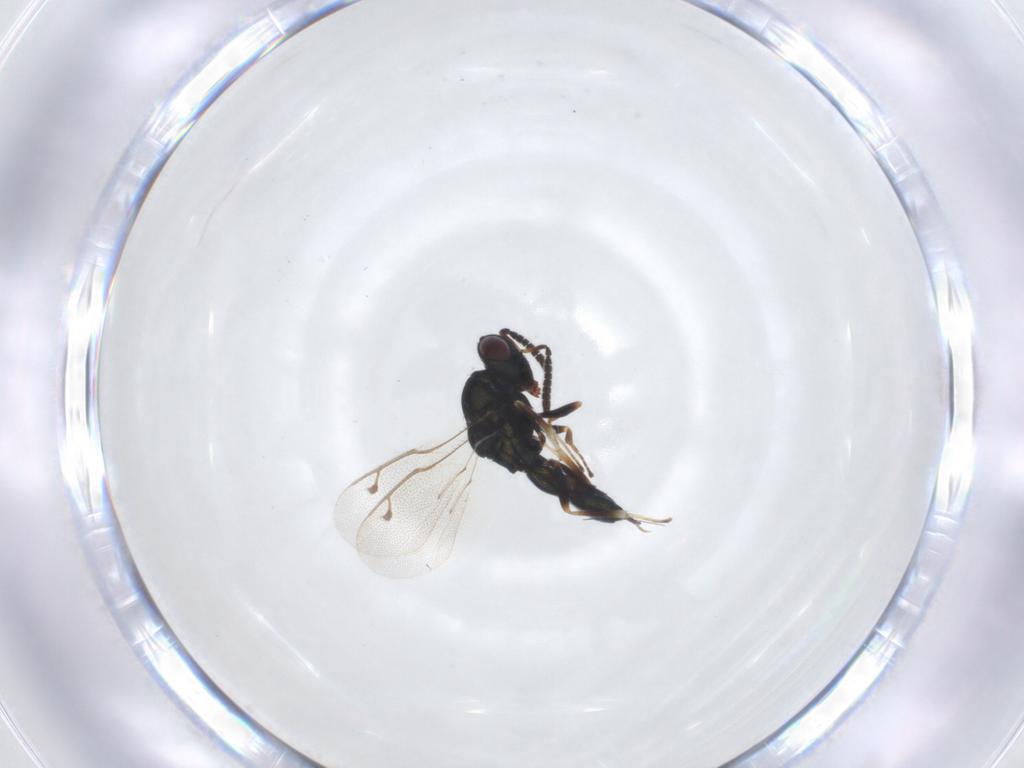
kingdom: Animalia
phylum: Arthropoda
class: Insecta
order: Hymenoptera
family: Pteromalidae
